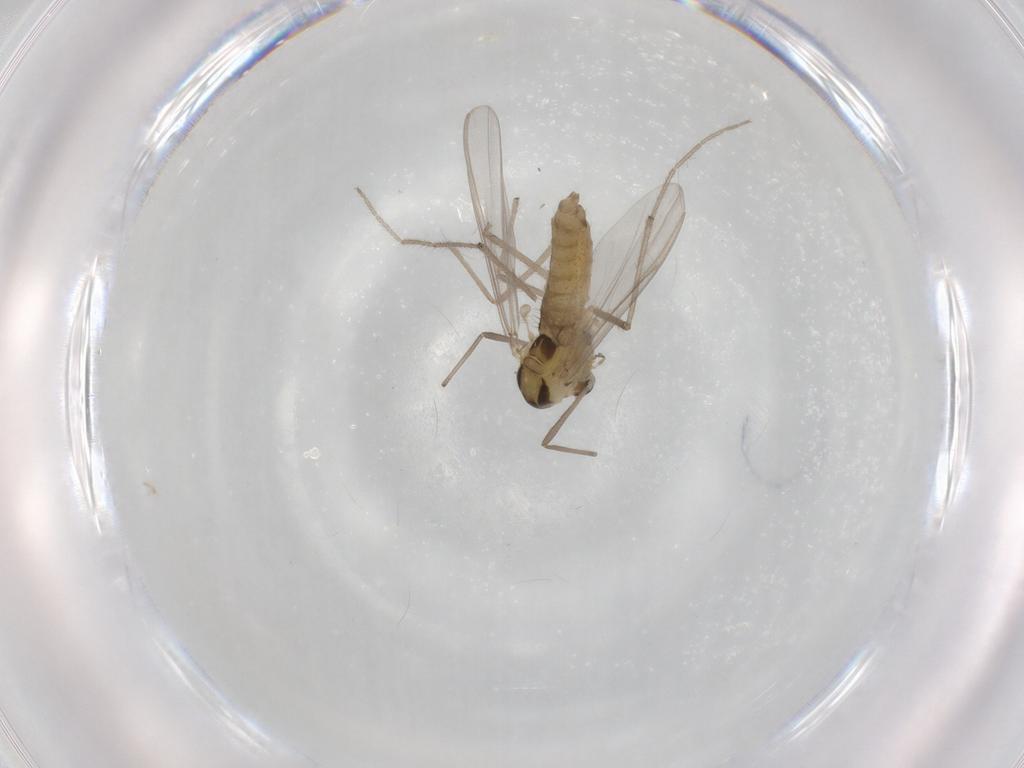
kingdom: Animalia
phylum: Arthropoda
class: Insecta
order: Diptera
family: Chironomidae
